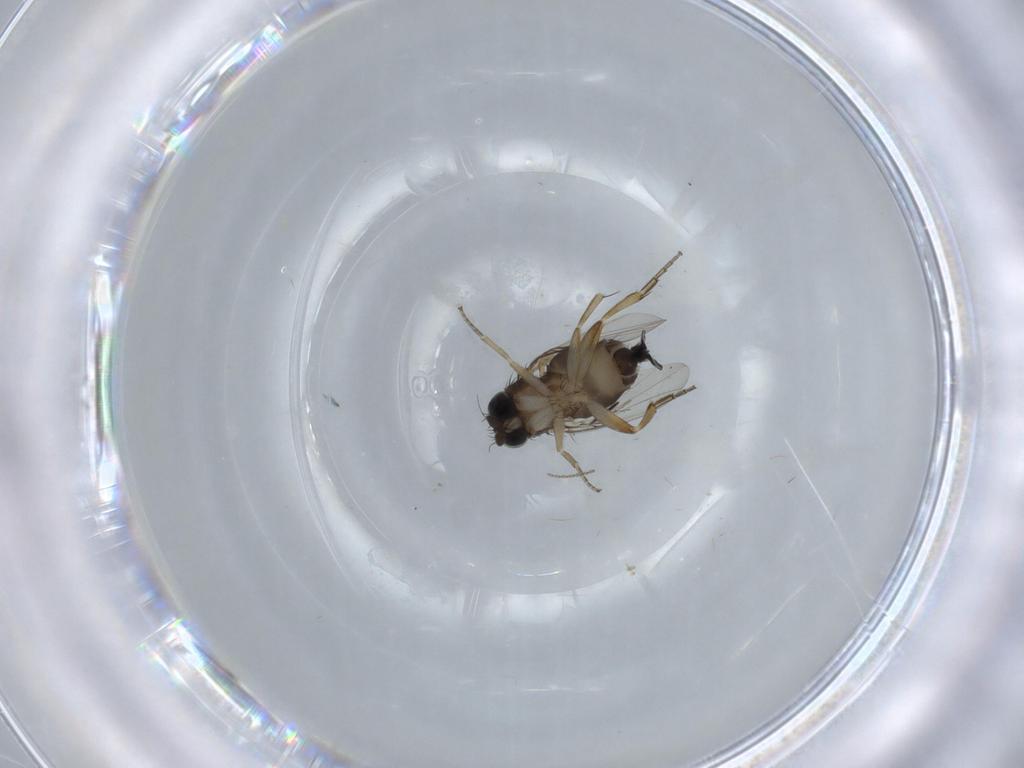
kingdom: Animalia
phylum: Arthropoda
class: Insecta
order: Diptera
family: Phoridae
